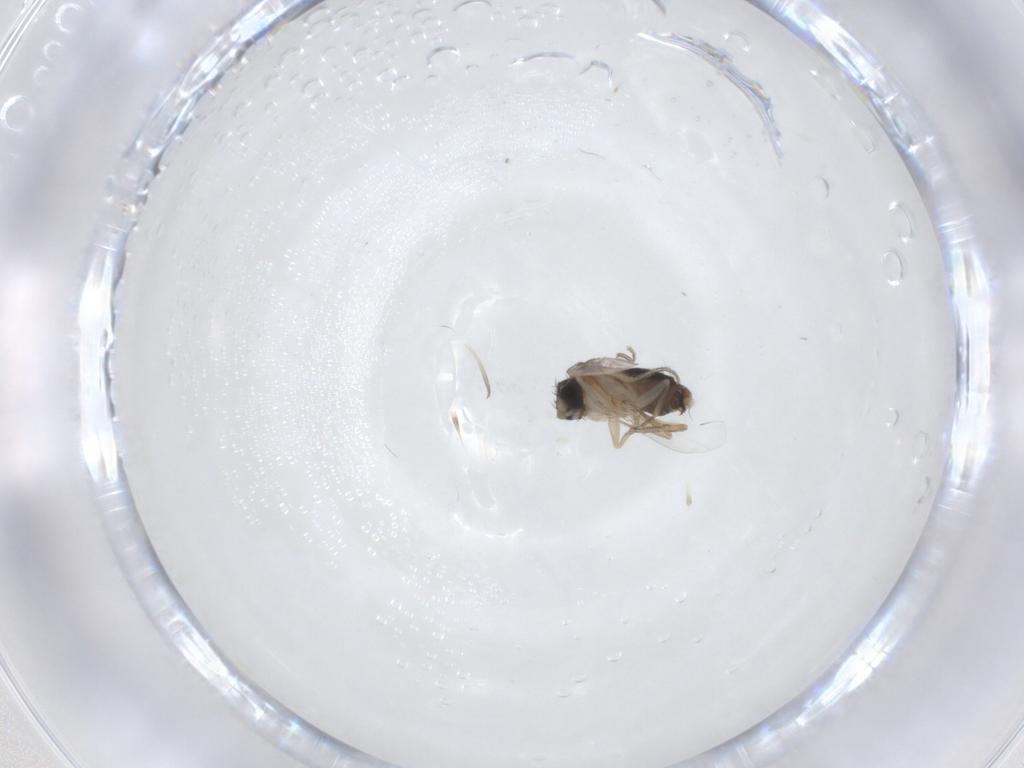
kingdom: Animalia
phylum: Arthropoda
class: Insecta
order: Diptera
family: Phoridae
